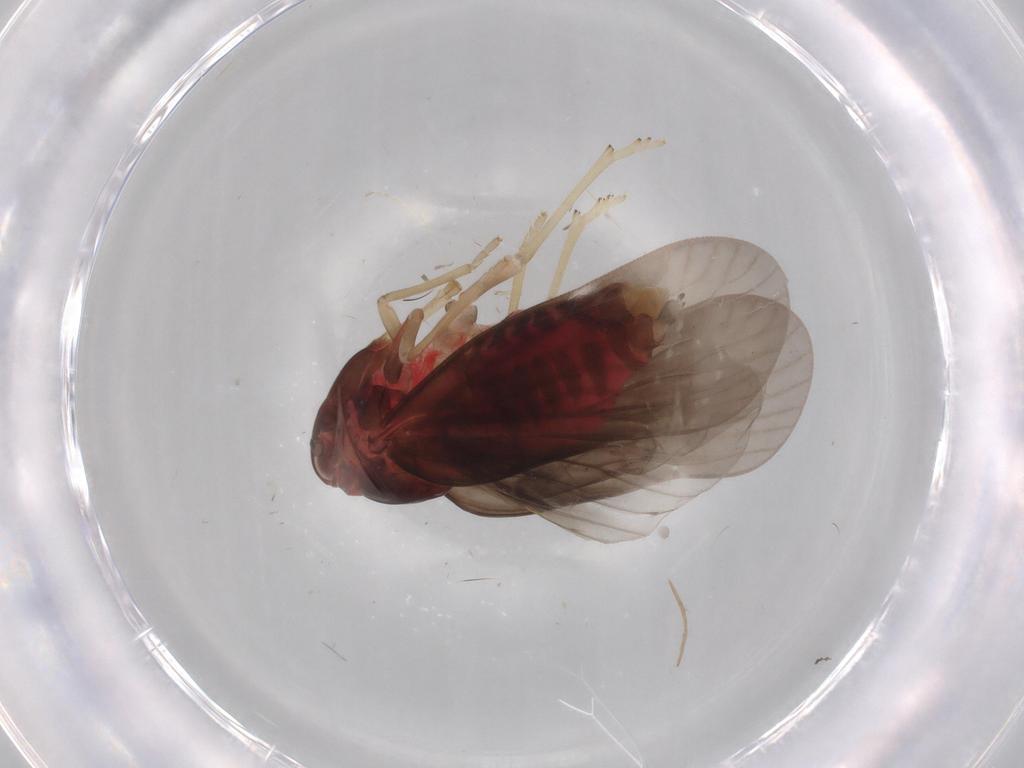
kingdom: Animalia
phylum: Arthropoda
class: Insecta
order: Hemiptera
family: Derbidae
